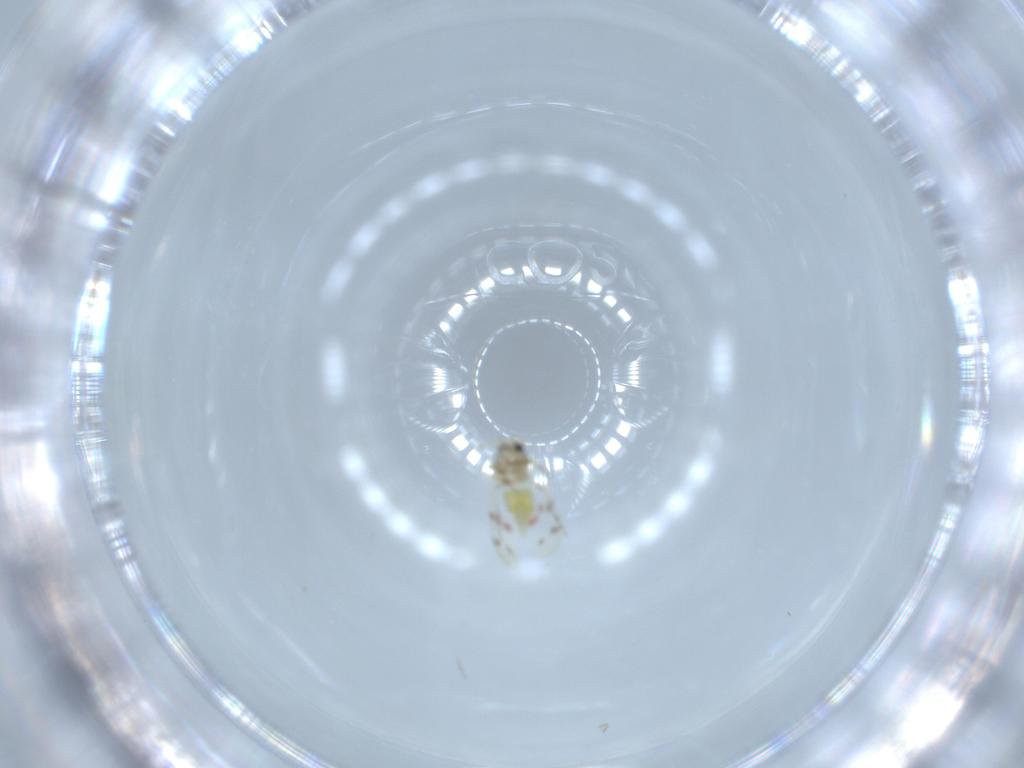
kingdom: Animalia
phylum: Arthropoda
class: Insecta
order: Hemiptera
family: Aleyrodidae
